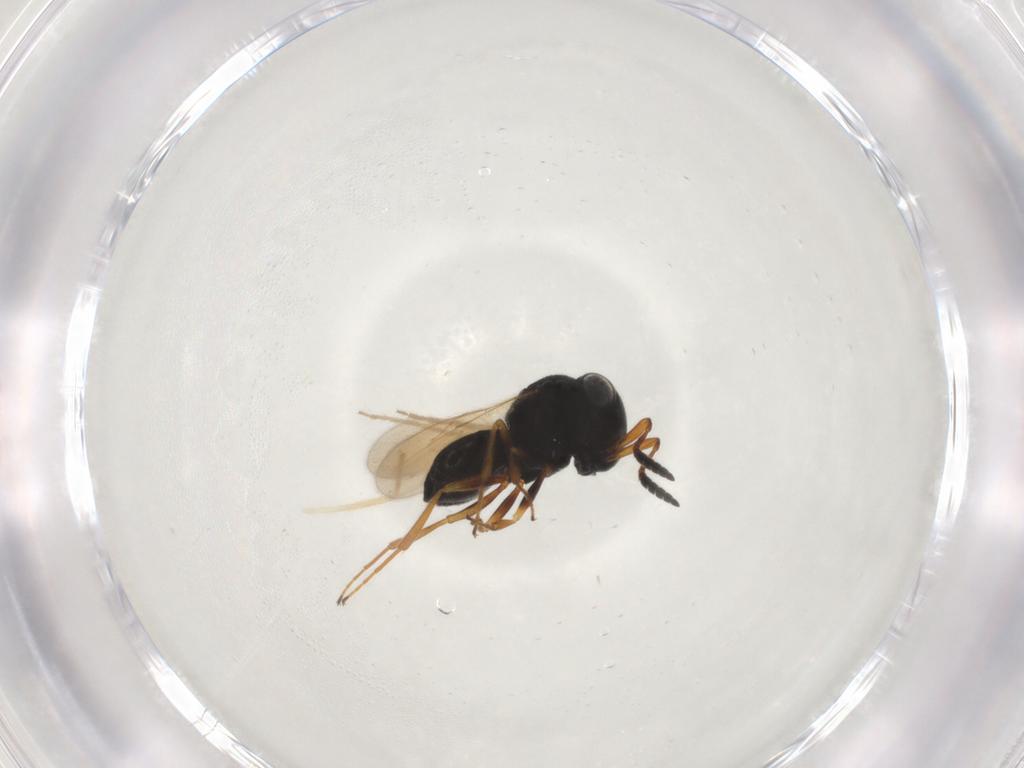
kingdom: Animalia
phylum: Arthropoda
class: Insecta
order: Hymenoptera
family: Scelionidae
